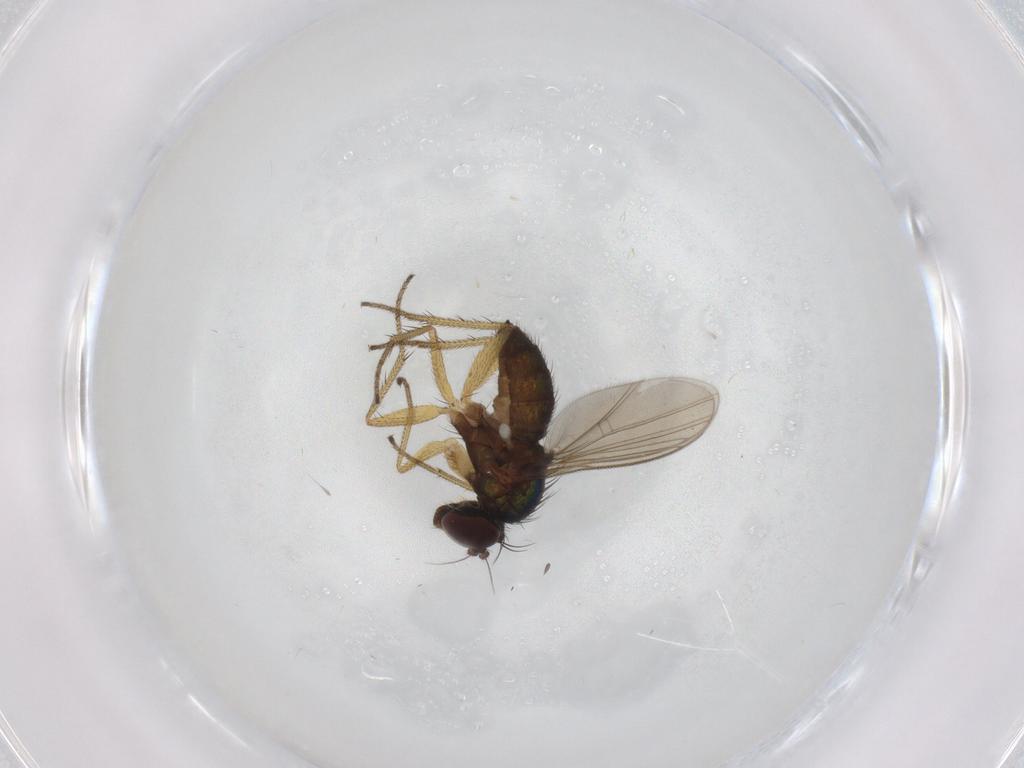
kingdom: Animalia
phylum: Arthropoda
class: Insecta
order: Diptera
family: Dolichopodidae
